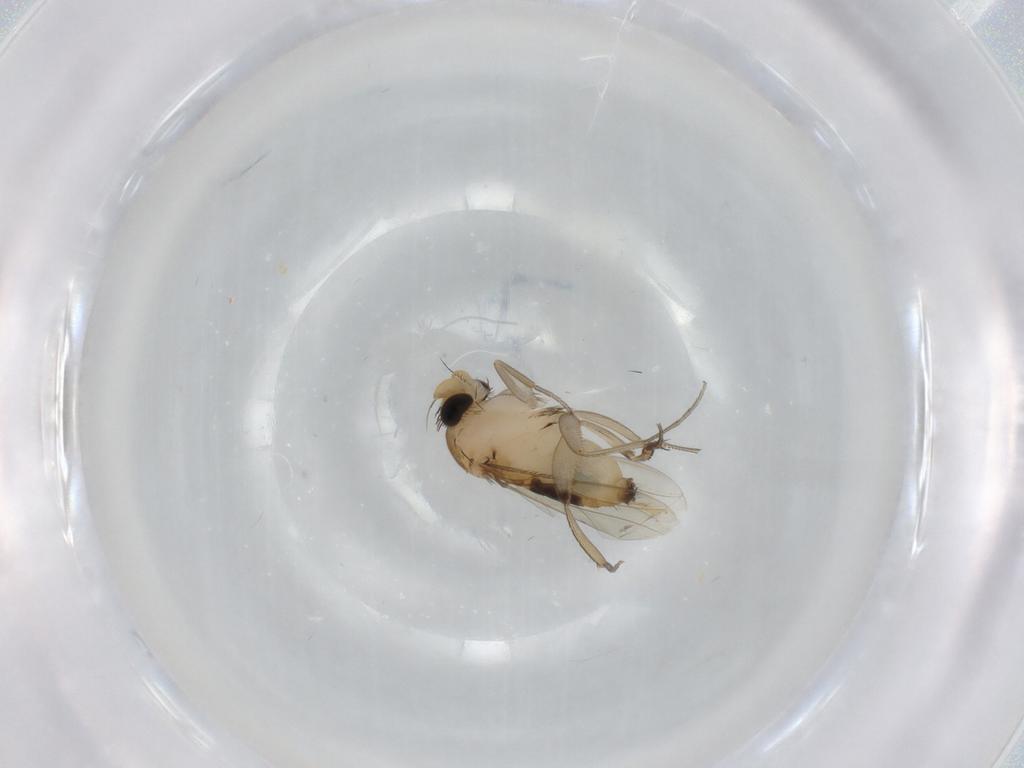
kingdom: Animalia
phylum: Arthropoda
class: Insecta
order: Diptera
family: Phoridae
